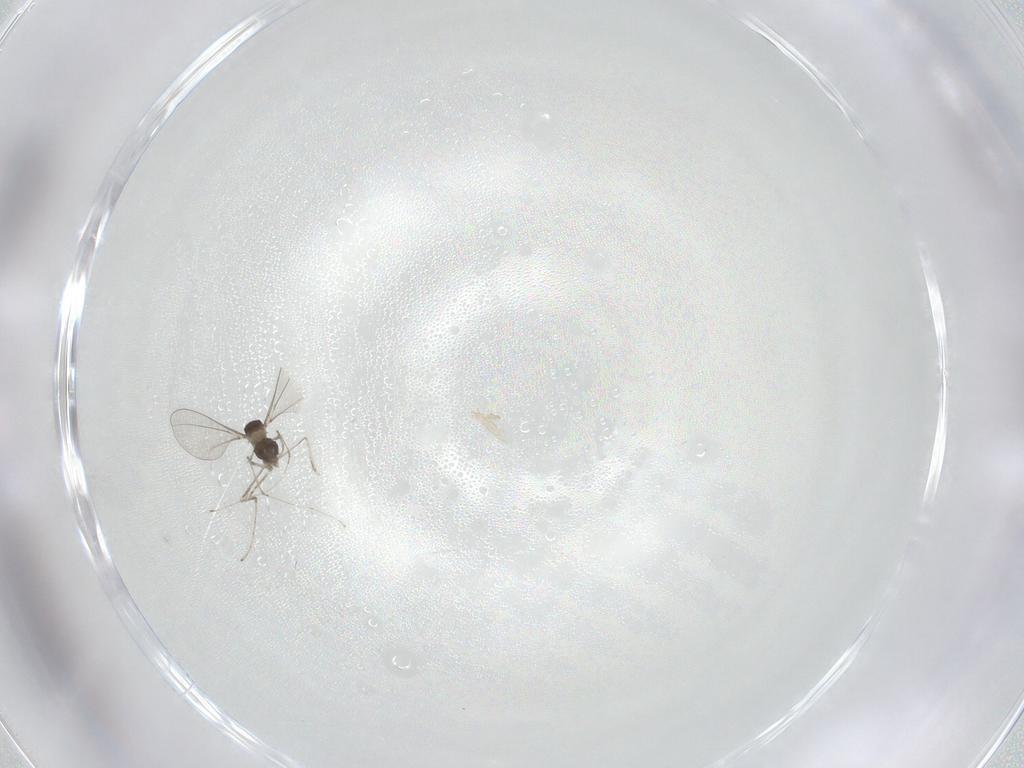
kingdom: Animalia
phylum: Arthropoda
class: Insecta
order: Diptera
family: Cecidomyiidae
